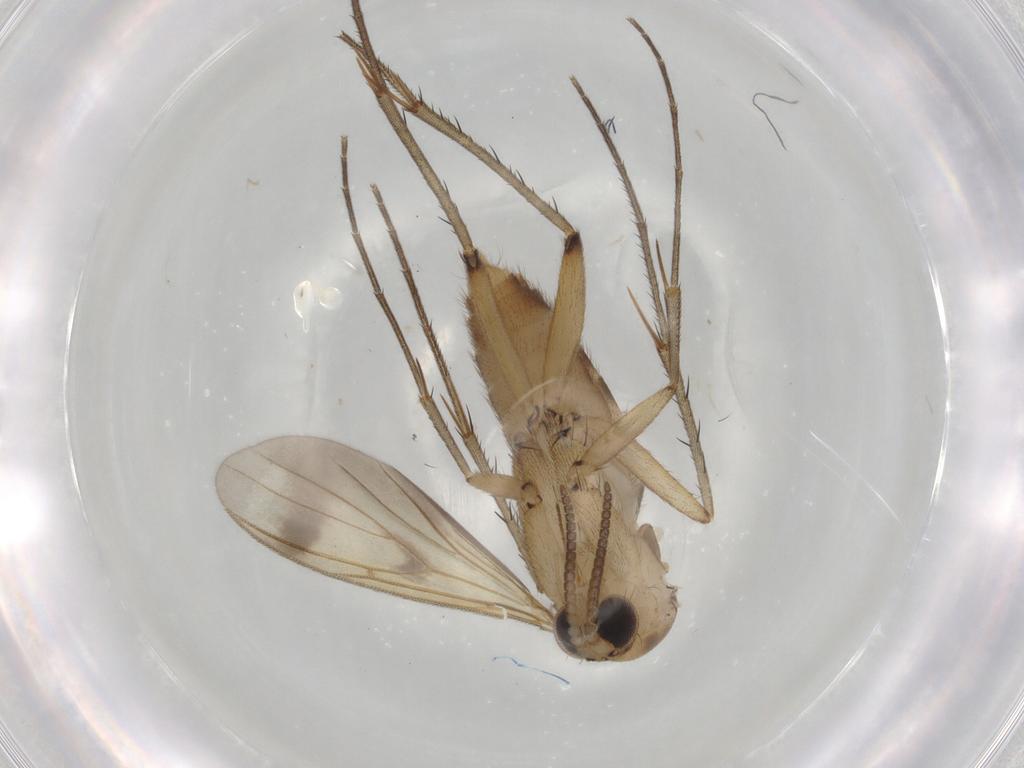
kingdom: Animalia
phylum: Arthropoda
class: Insecta
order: Diptera
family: Mycetophilidae
